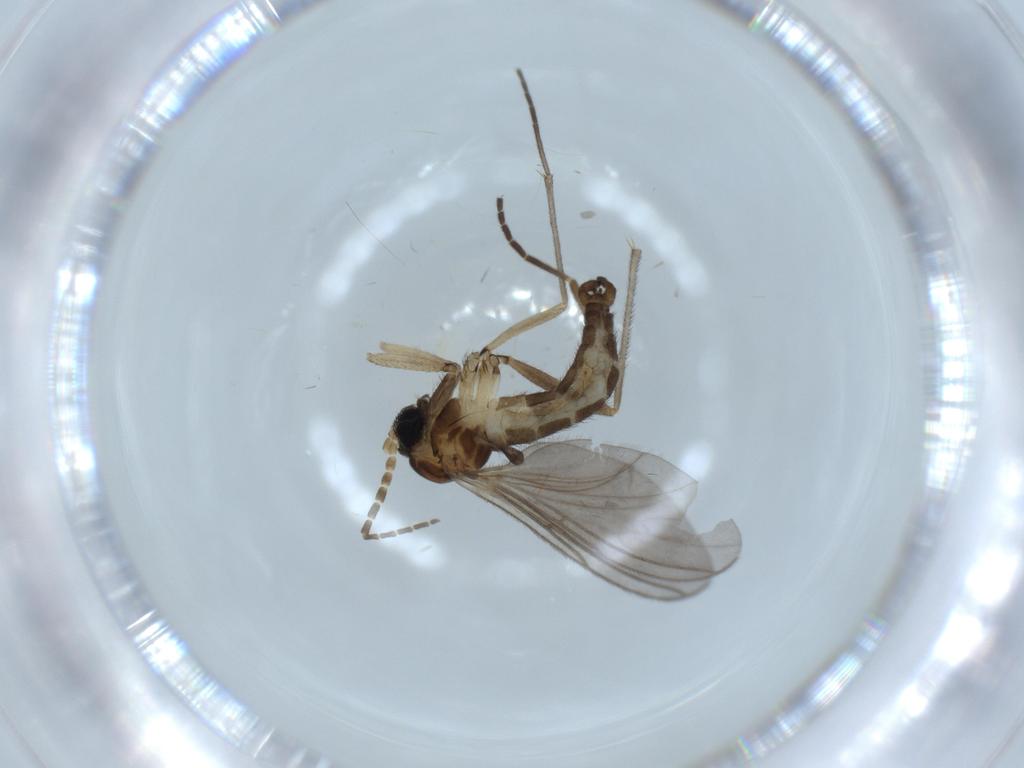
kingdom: Animalia
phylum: Arthropoda
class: Insecta
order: Diptera
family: Sciaridae
